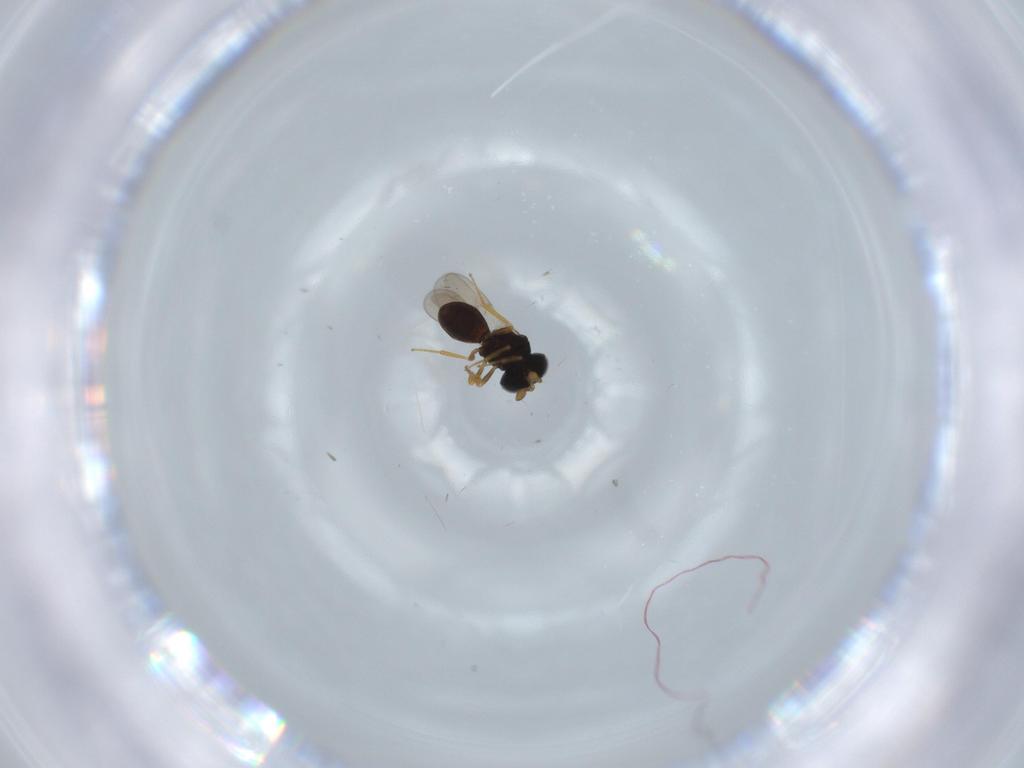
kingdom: Animalia
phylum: Arthropoda
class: Insecta
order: Hymenoptera
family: Scelionidae
